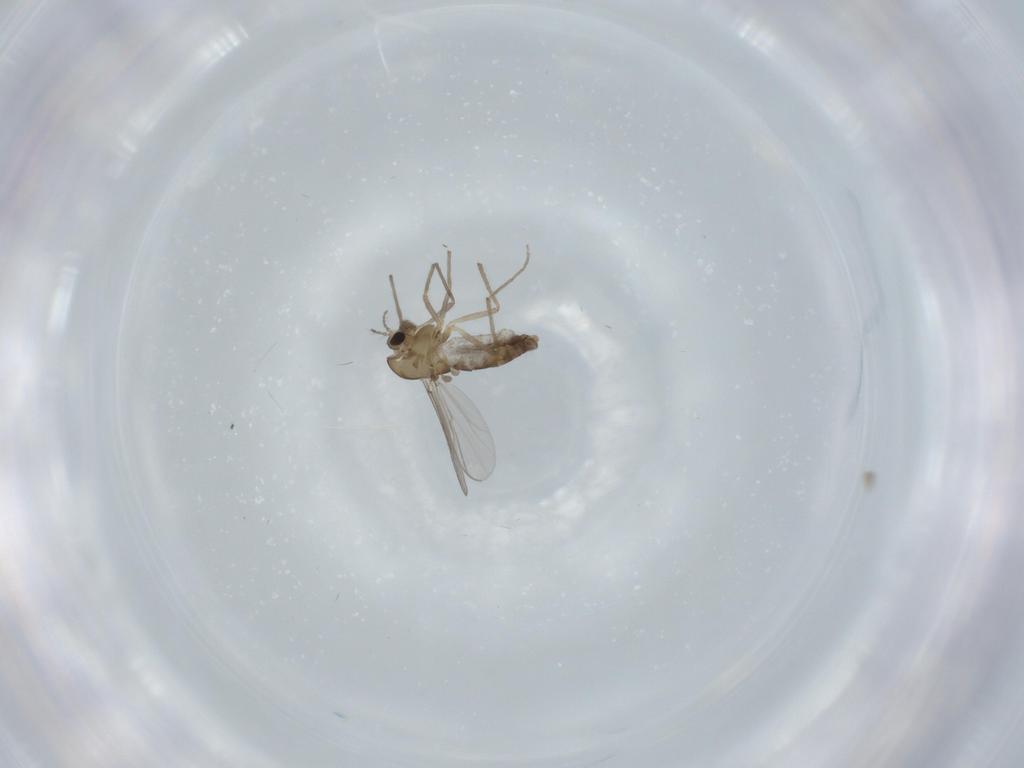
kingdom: Animalia
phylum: Arthropoda
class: Insecta
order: Diptera
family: Chironomidae
